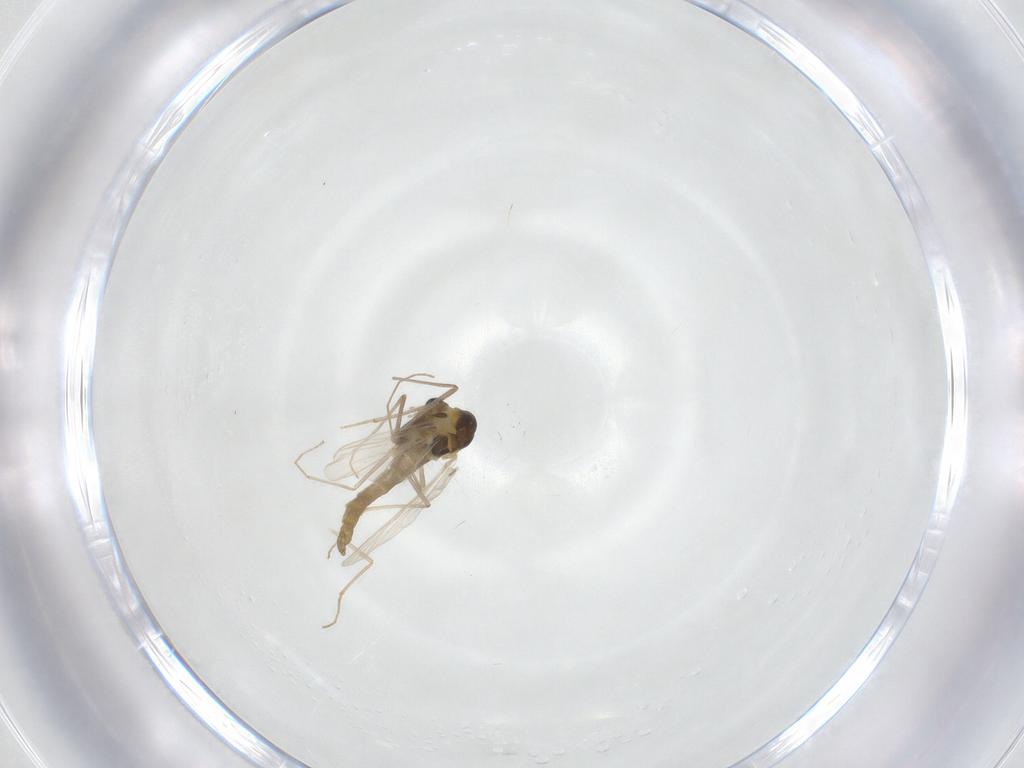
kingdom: Animalia
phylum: Arthropoda
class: Insecta
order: Diptera
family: Chironomidae
